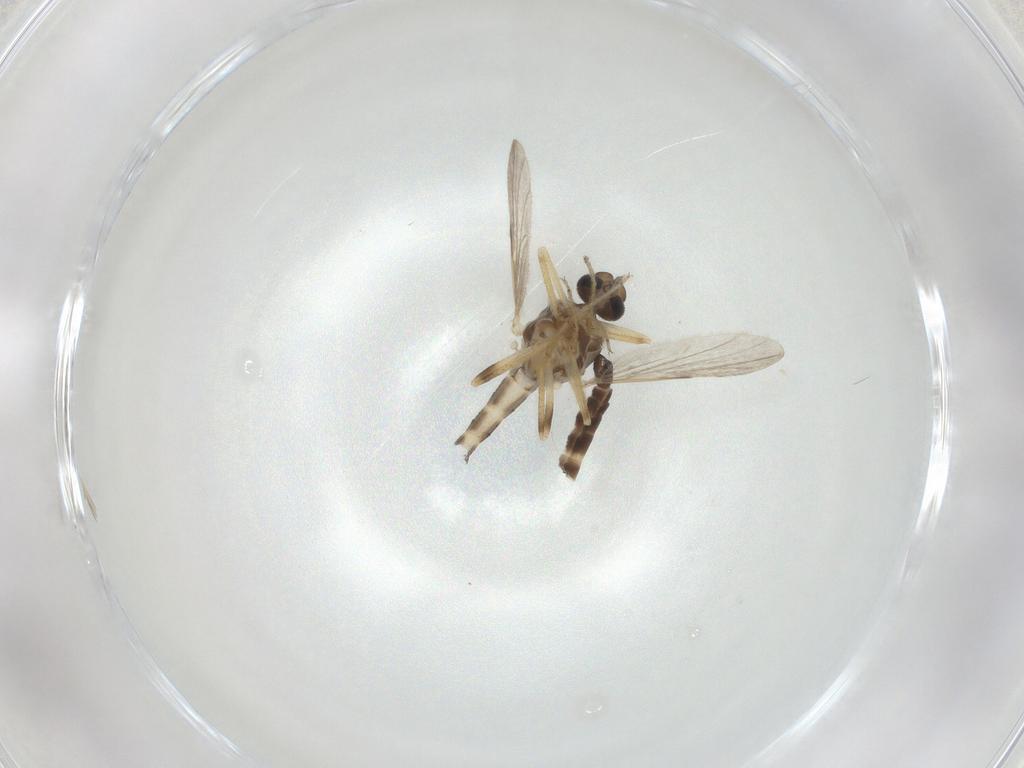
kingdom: Animalia
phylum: Arthropoda
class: Insecta
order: Diptera
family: Ceratopogonidae
